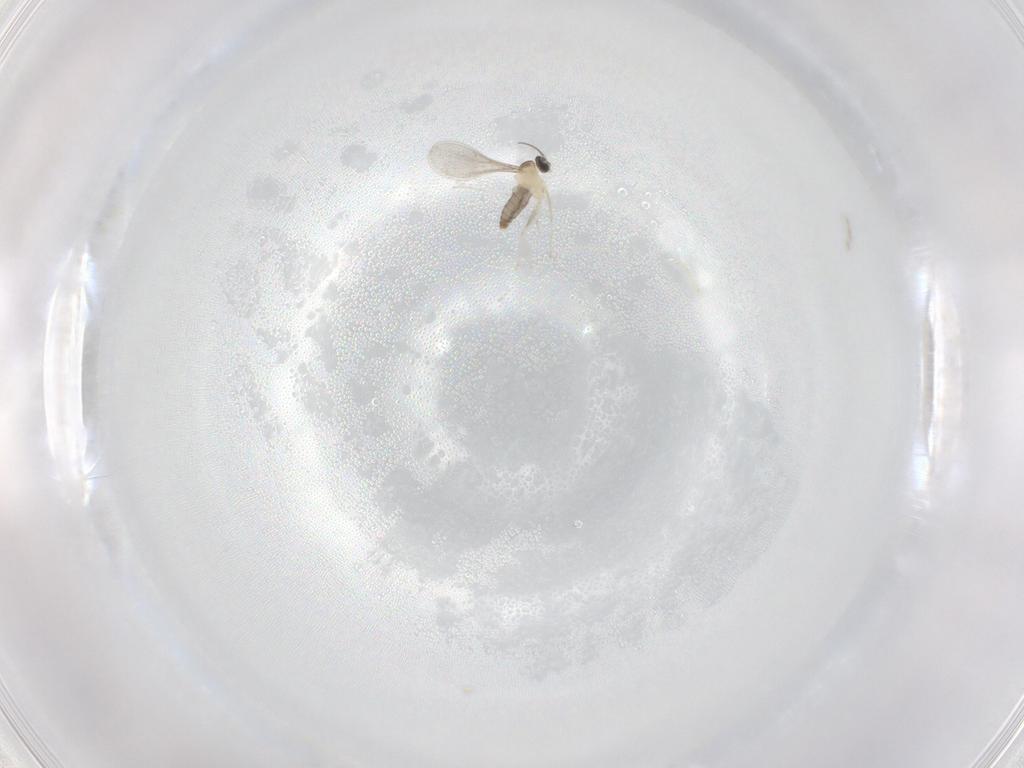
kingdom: Animalia
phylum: Arthropoda
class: Insecta
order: Diptera
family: Cecidomyiidae
